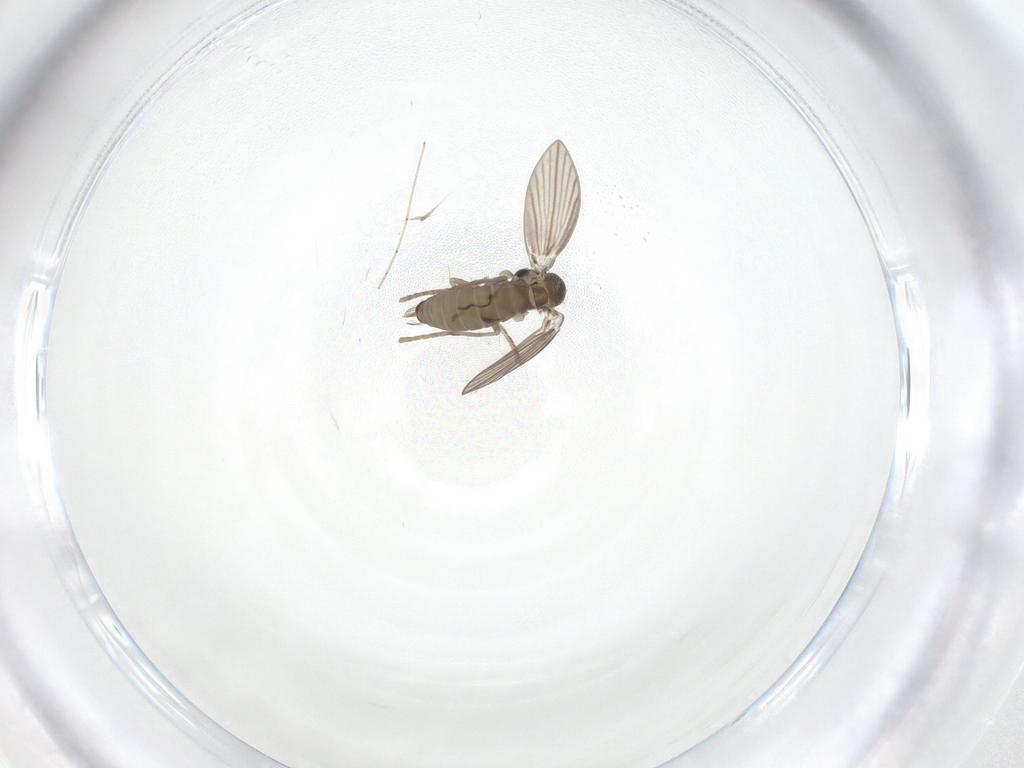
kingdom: Animalia
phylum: Arthropoda
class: Insecta
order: Diptera
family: Psychodidae
